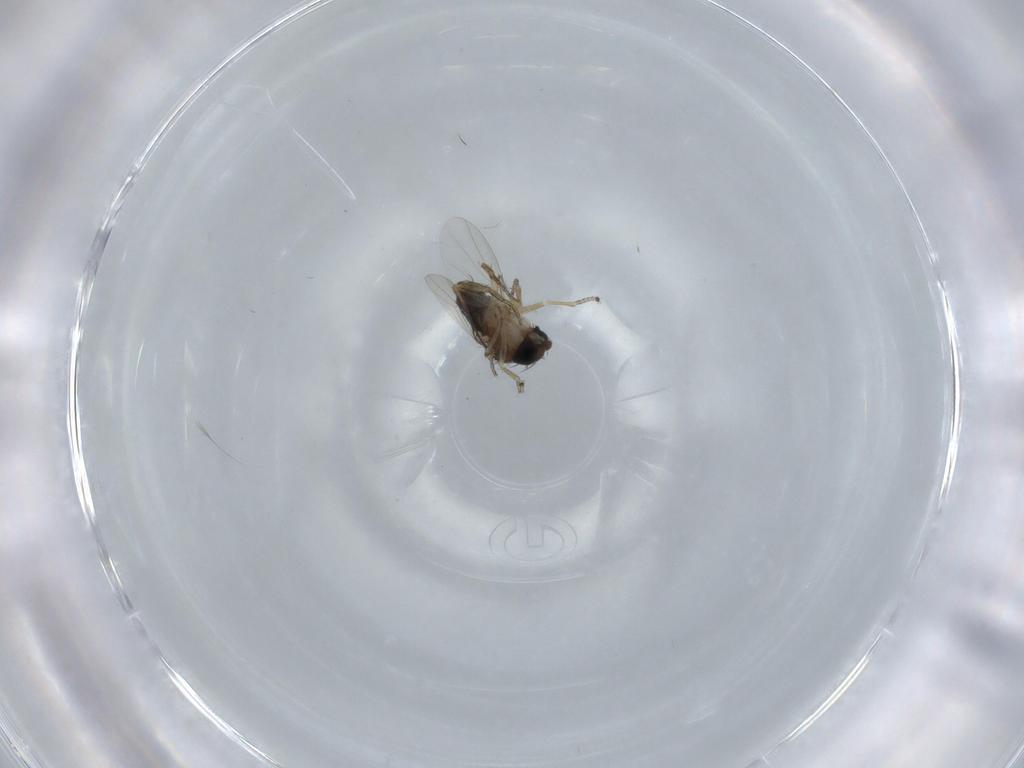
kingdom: Animalia
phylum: Arthropoda
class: Insecta
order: Diptera
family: Phoridae
